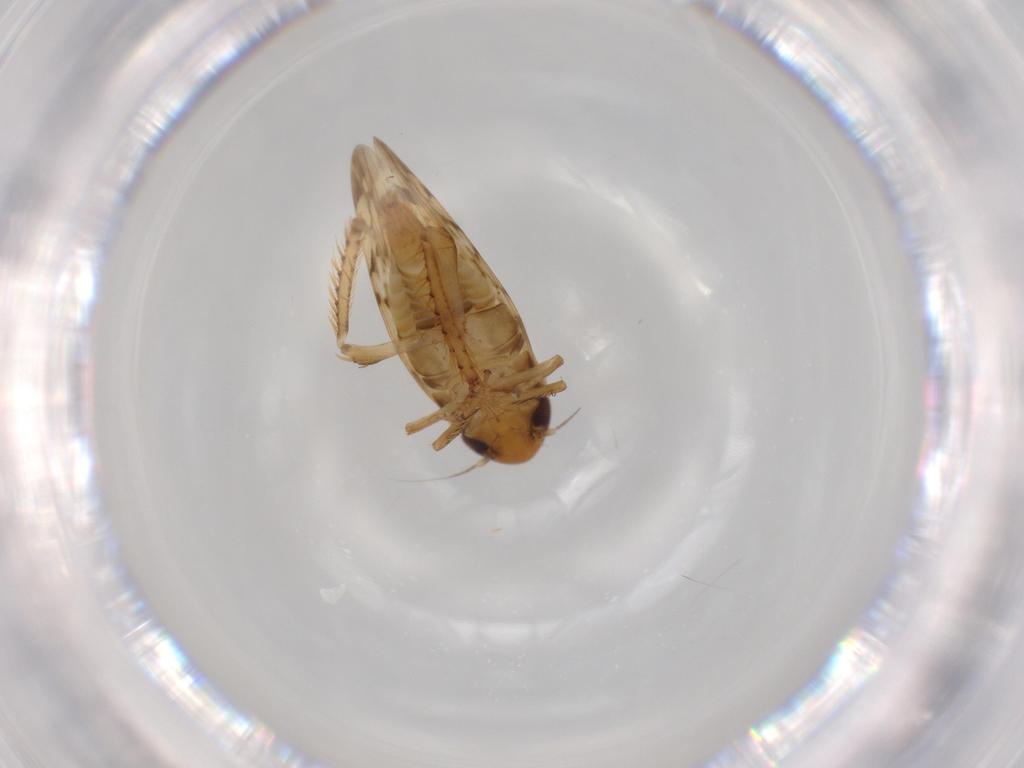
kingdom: Animalia
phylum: Arthropoda
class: Insecta
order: Hemiptera
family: Cicadellidae
